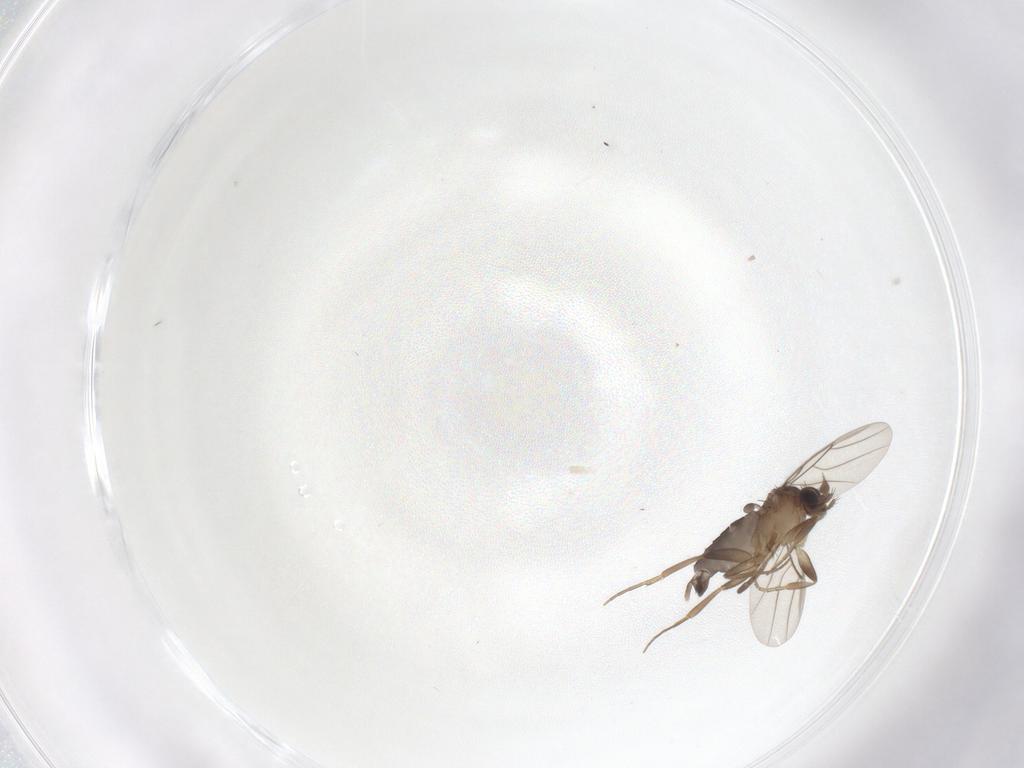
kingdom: Animalia
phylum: Arthropoda
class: Insecta
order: Diptera
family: Phoridae
